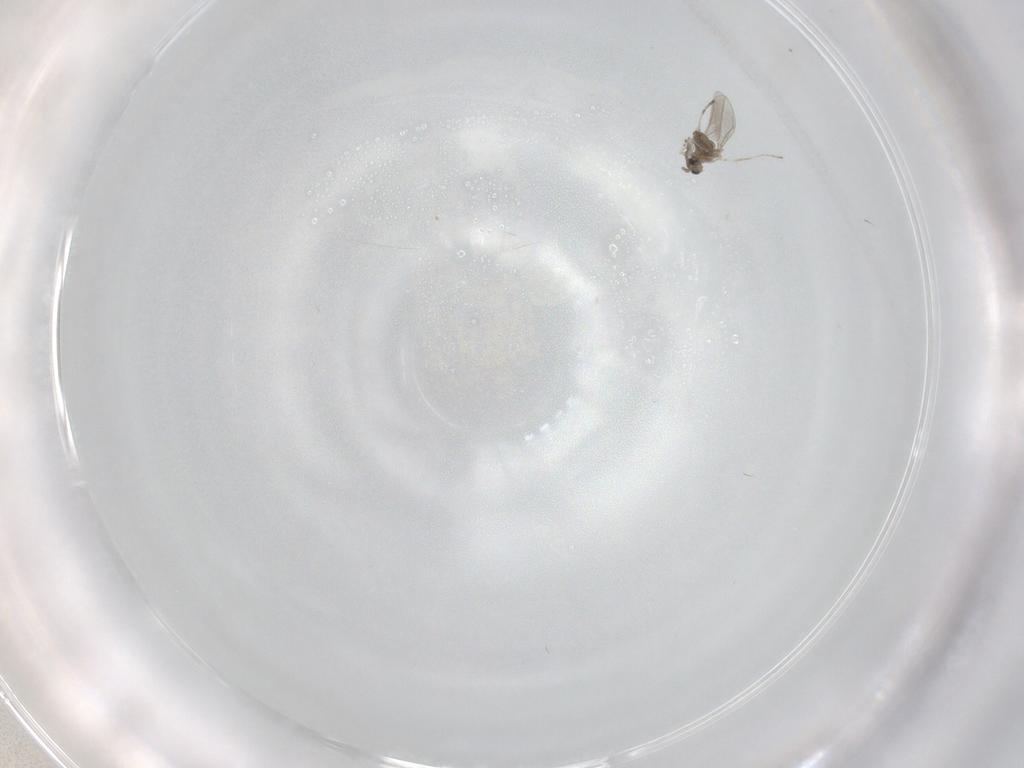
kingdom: Animalia
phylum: Arthropoda
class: Insecta
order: Diptera
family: Cecidomyiidae
